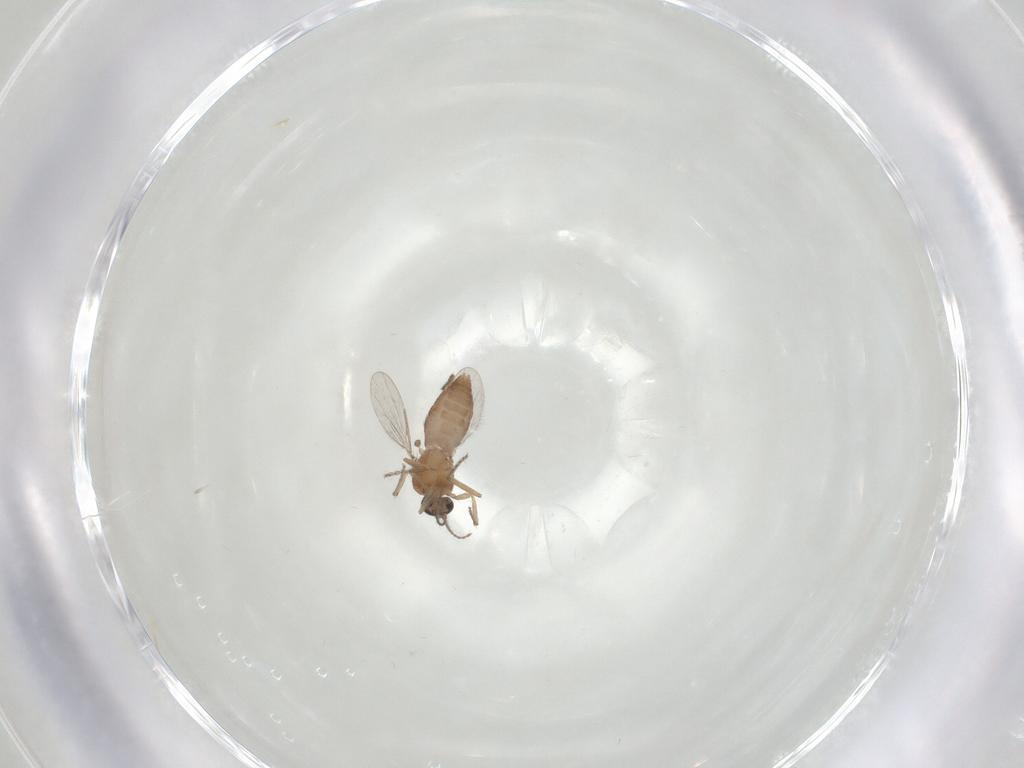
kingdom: Animalia
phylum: Arthropoda
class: Insecta
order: Diptera
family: Ceratopogonidae
